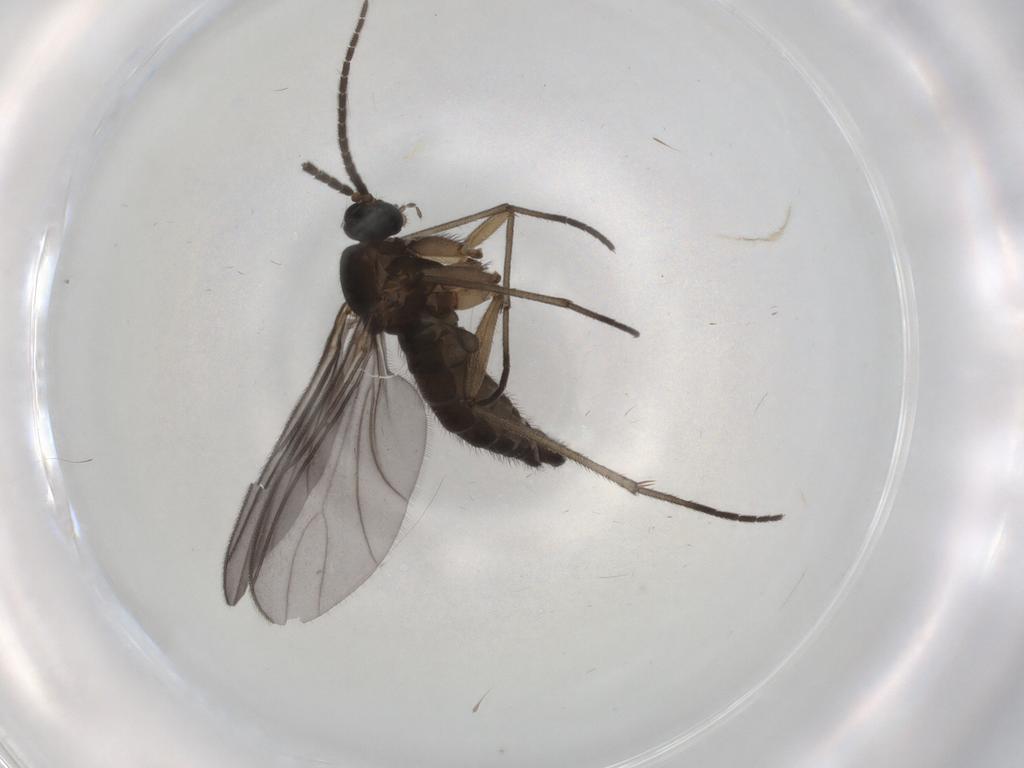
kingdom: Animalia
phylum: Arthropoda
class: Insecta
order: Diptera
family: Sciaridae
